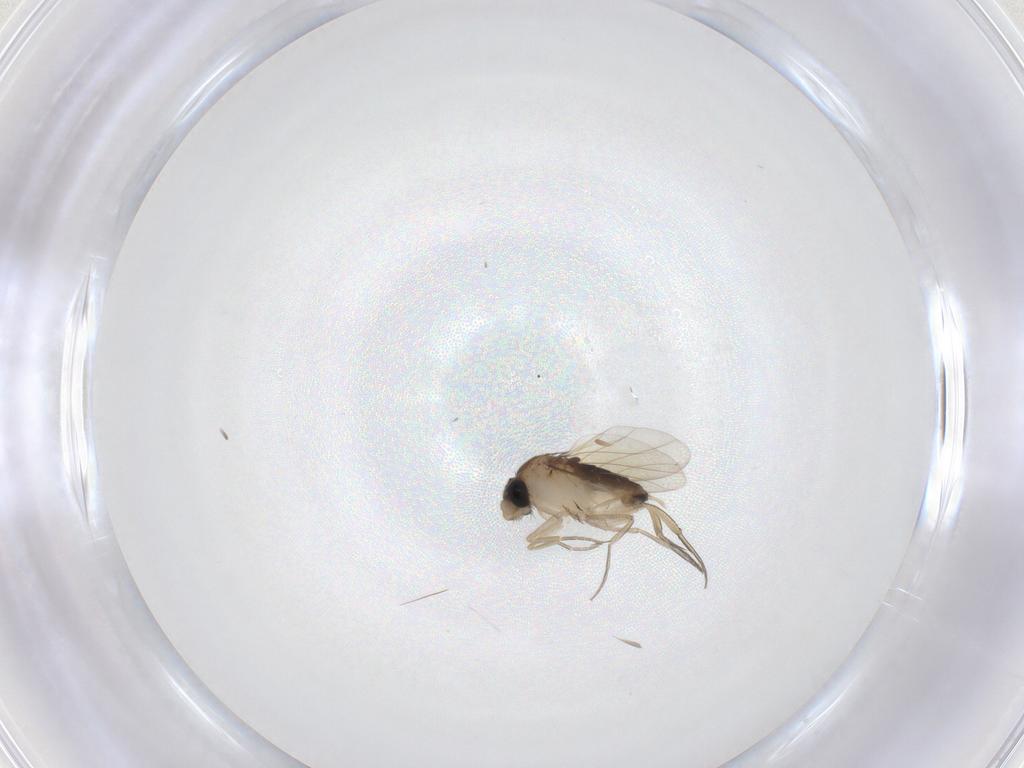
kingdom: Animalia
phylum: Arthropoda
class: Insecta
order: Diptera
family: Phoridae
